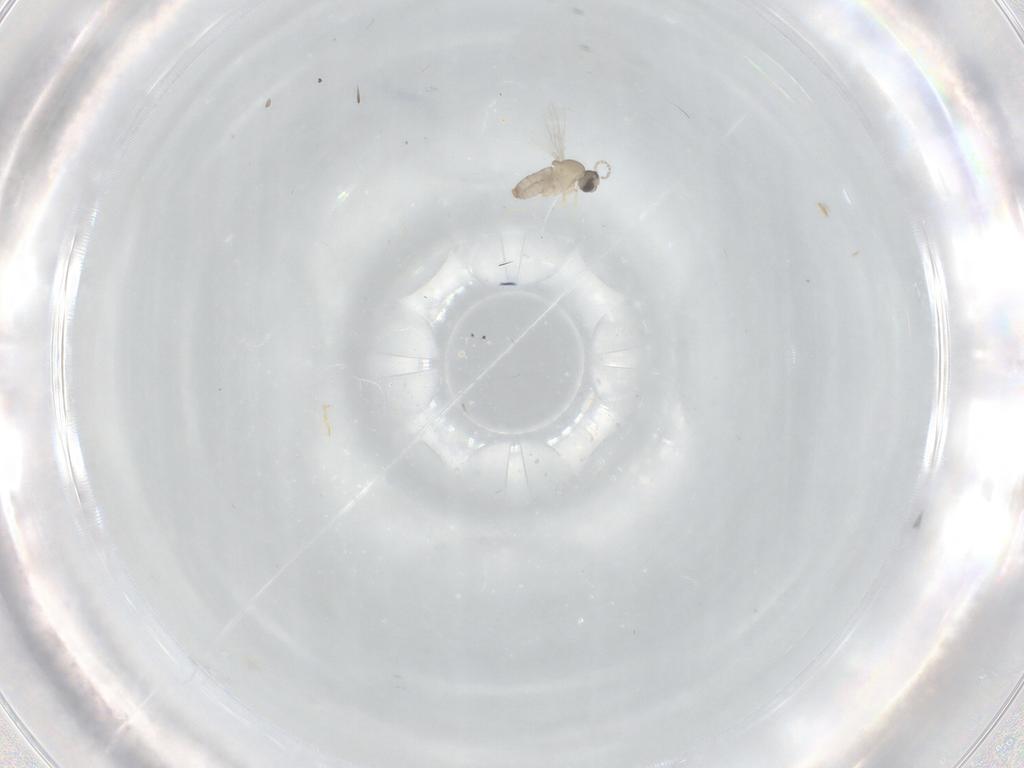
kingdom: Animalia
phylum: Arthropoda
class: Insecta
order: Diptera
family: Cecidomyiidae
